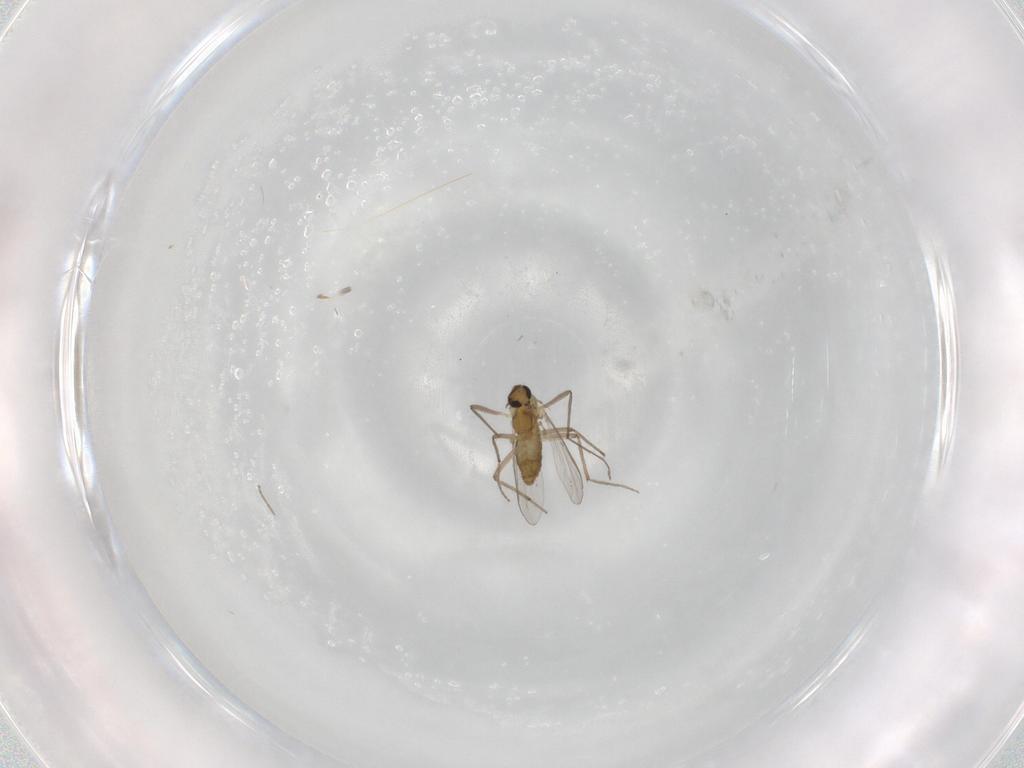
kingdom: Animalia
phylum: Arthropoda
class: Insecta
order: Diptera
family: Chironomidae
